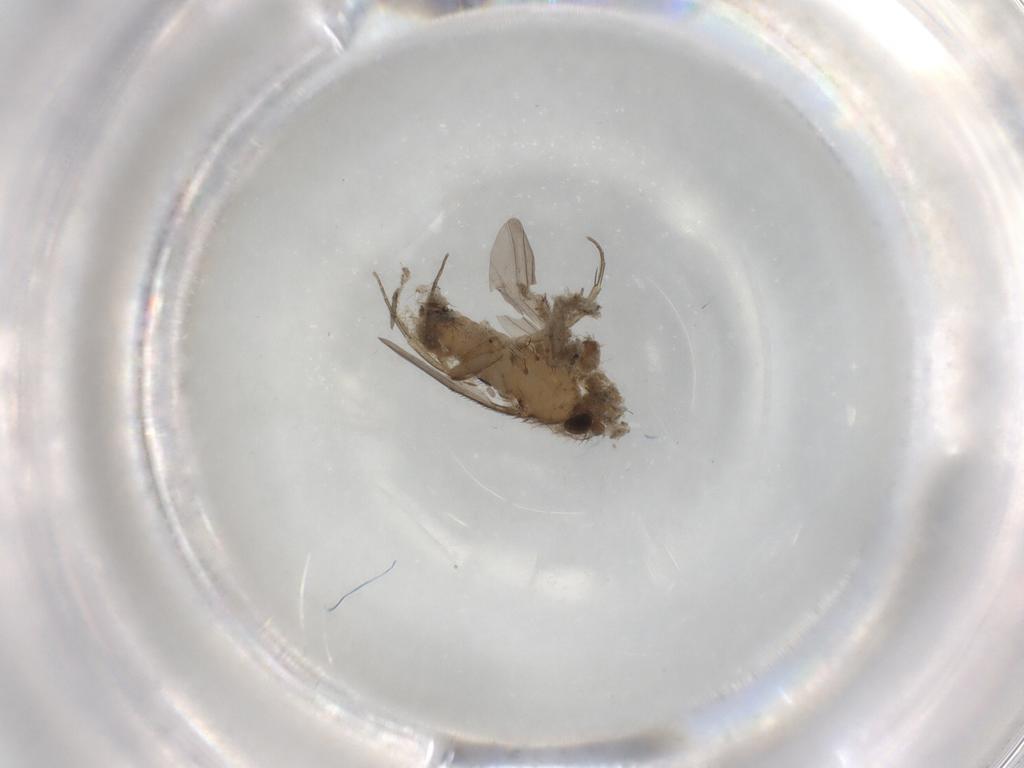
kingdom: Animalia
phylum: Arthropoda
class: Insecta
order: Diptera
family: Phoridae
